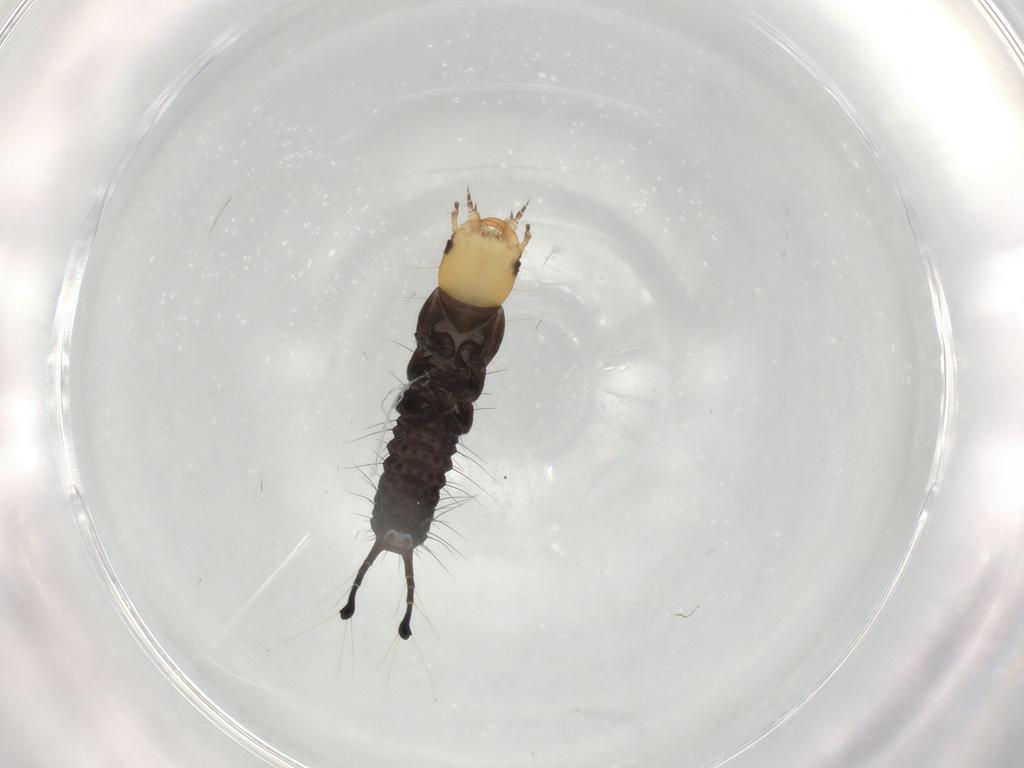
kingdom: Animalia
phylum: Arthropoda
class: Insecta
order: Coleoptera
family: Carabidae
